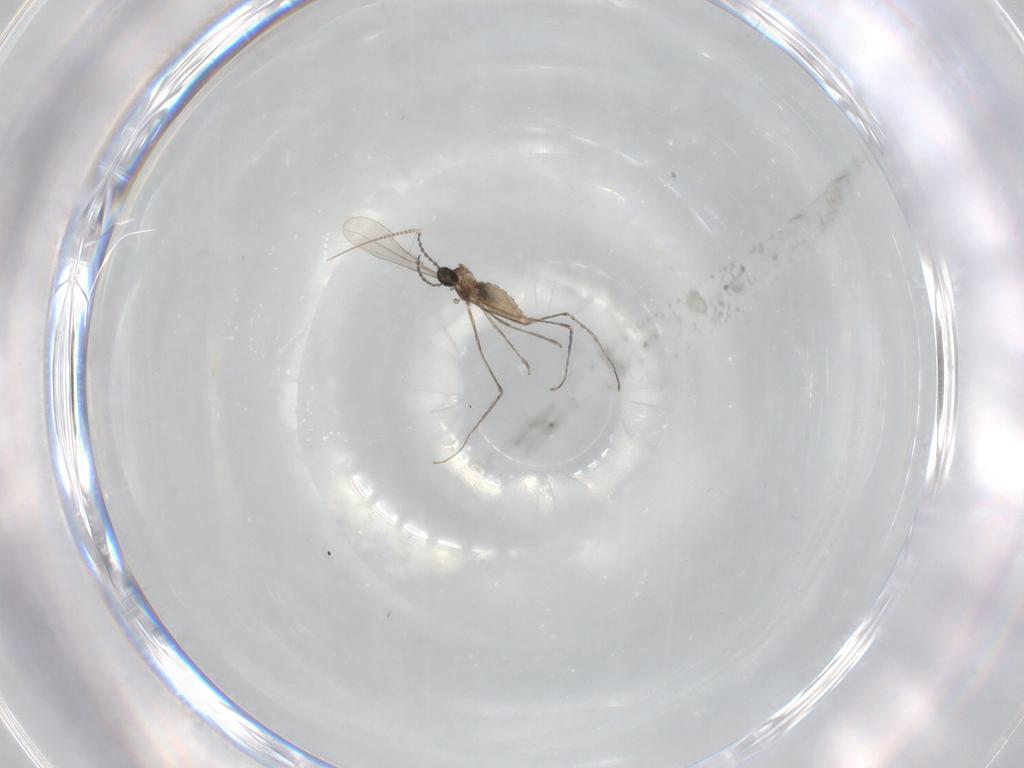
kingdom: Animalia
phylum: Arthropoda
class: Insecta
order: Diptera
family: Cecidomyiidae
